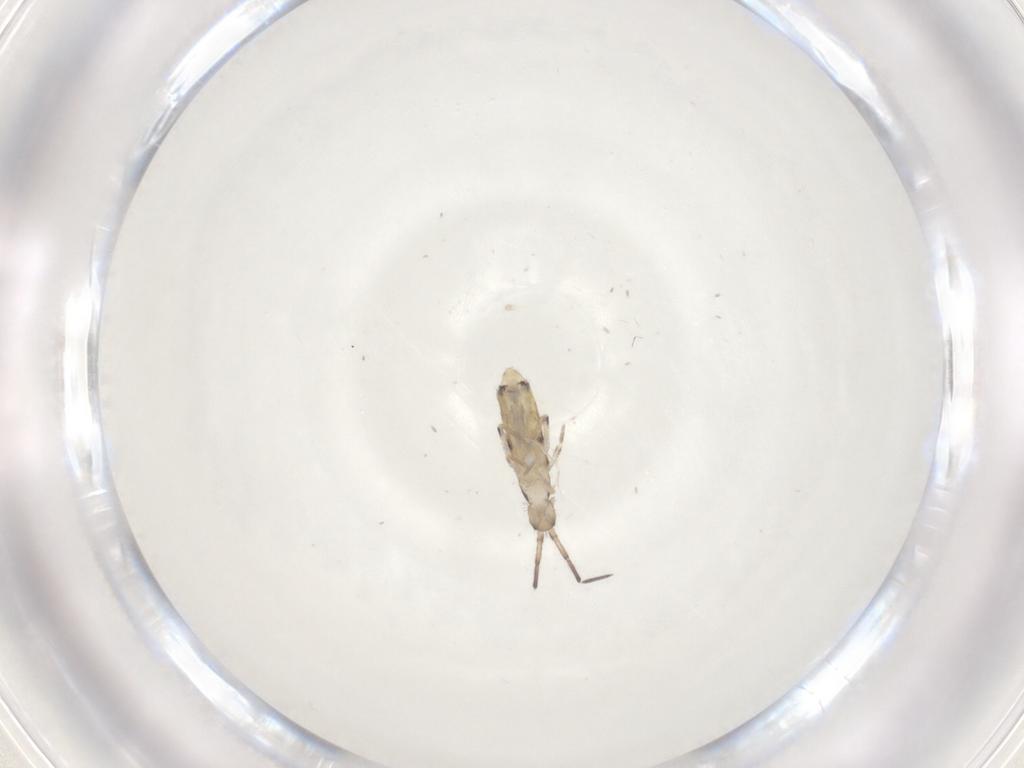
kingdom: Animalia
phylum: Arthropoda
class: Collembola
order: Entomobryomorpha
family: Entomobryidae
